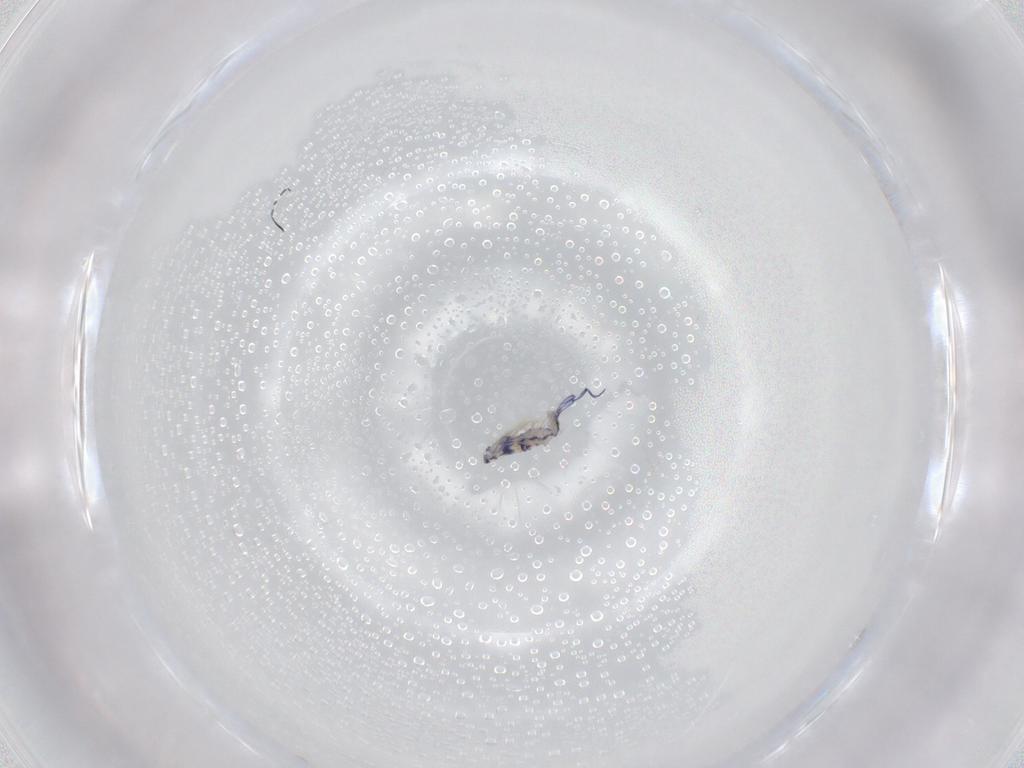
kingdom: Animalia
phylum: Arthropoda
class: Collembola
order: Entomobryomorpha
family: Entomobryidae
